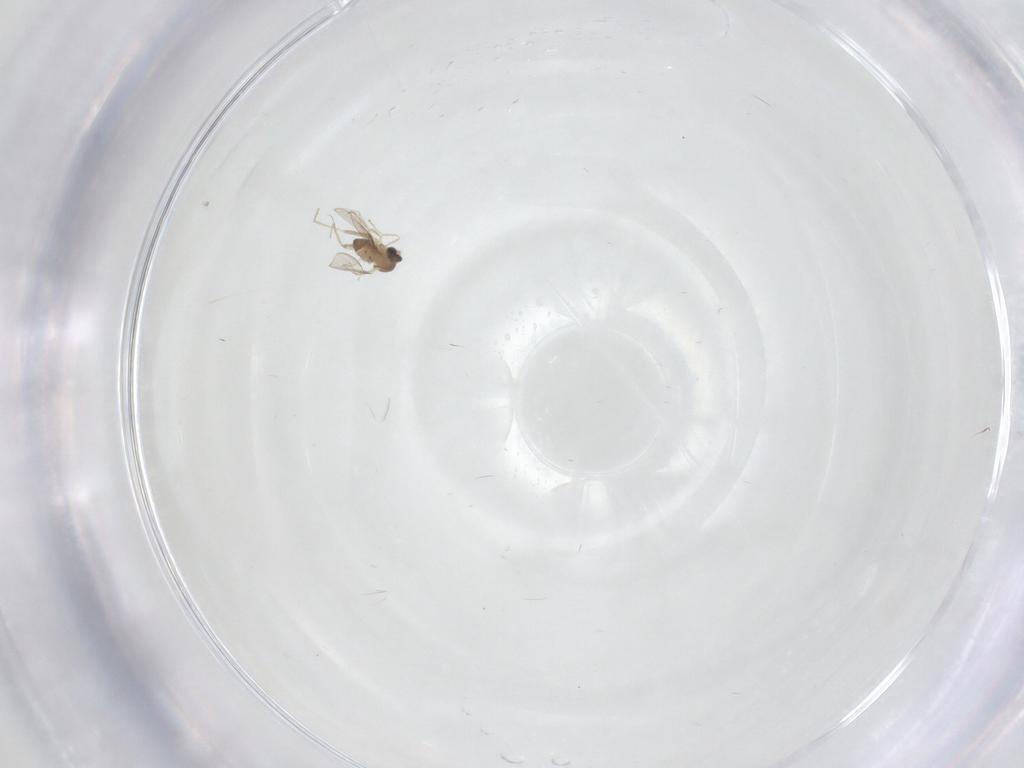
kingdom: Animalia
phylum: Arthropoda
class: Insecta
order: Diptera
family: Cecidomyiidae
